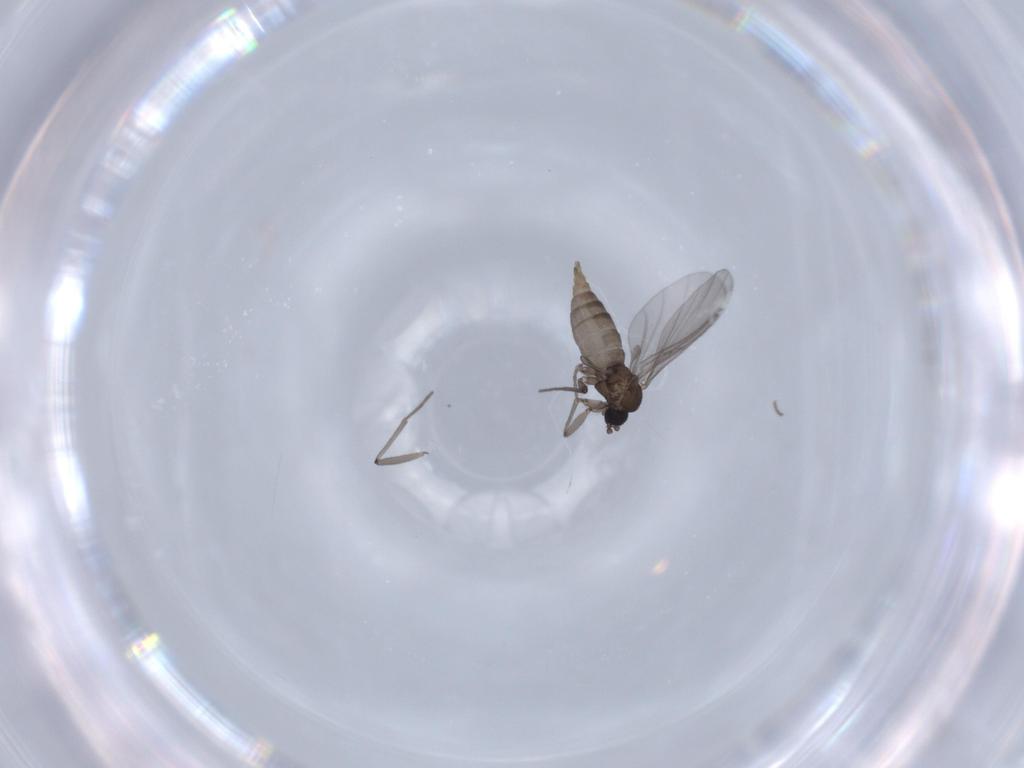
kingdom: Animalia
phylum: Arthropoda
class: Insecta
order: Diptera
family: Sciaridae
